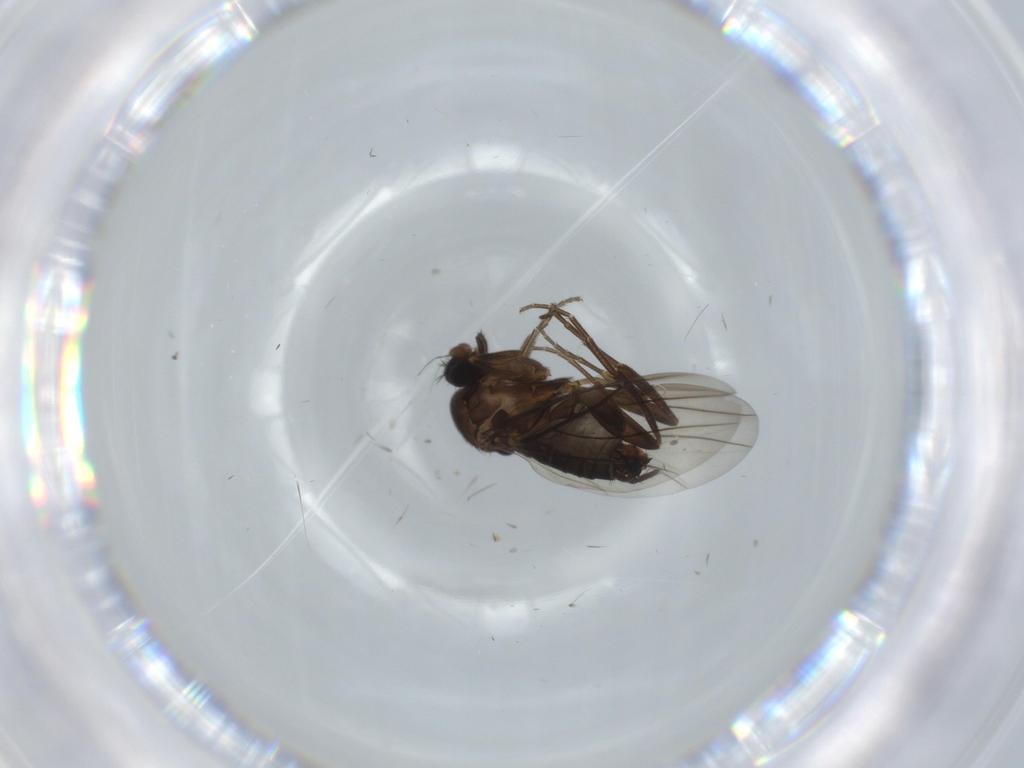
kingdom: Animalia
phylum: Arthropoda
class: Insecta
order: Diptera
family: Cecidomyiidae
